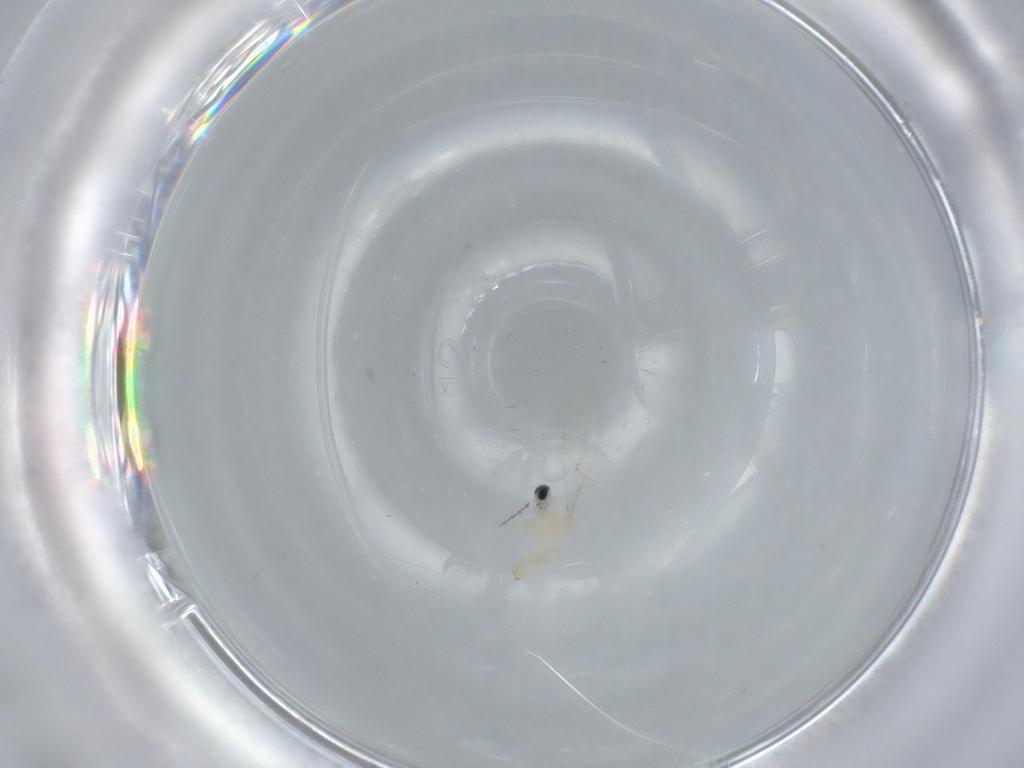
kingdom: Animalia
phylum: Arthropoda
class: Insecta
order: Diptera
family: Cecidomyiidae
